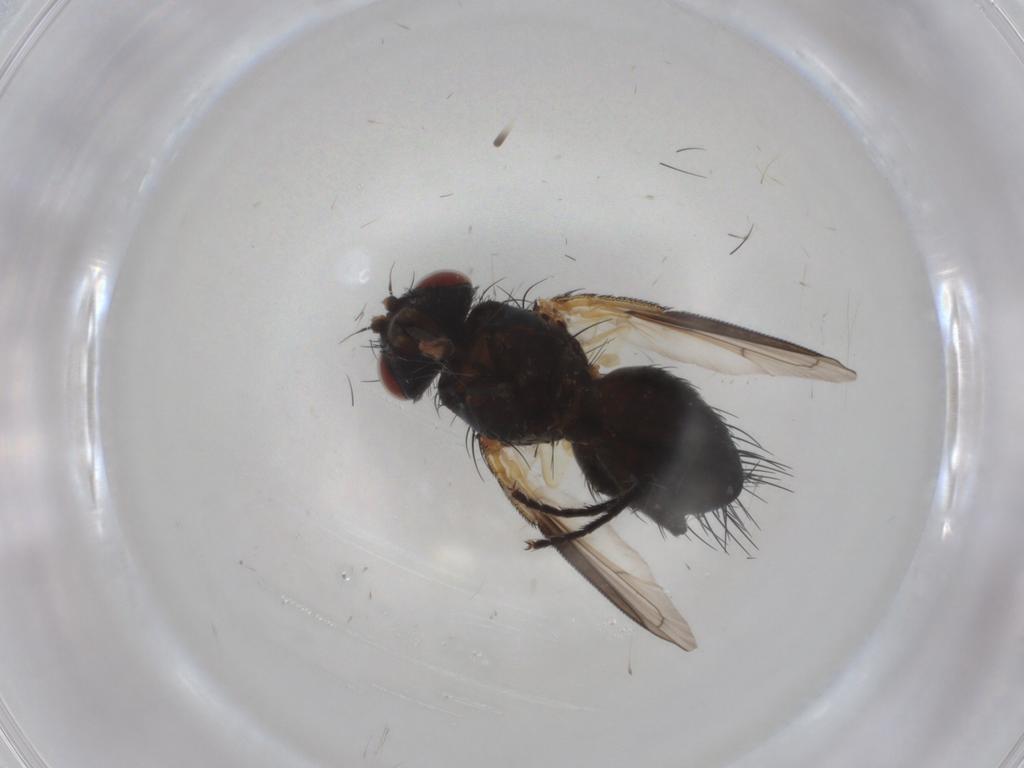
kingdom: Animalia
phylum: Arthropoda
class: Insecta
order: Diptera
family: Tachinidae
